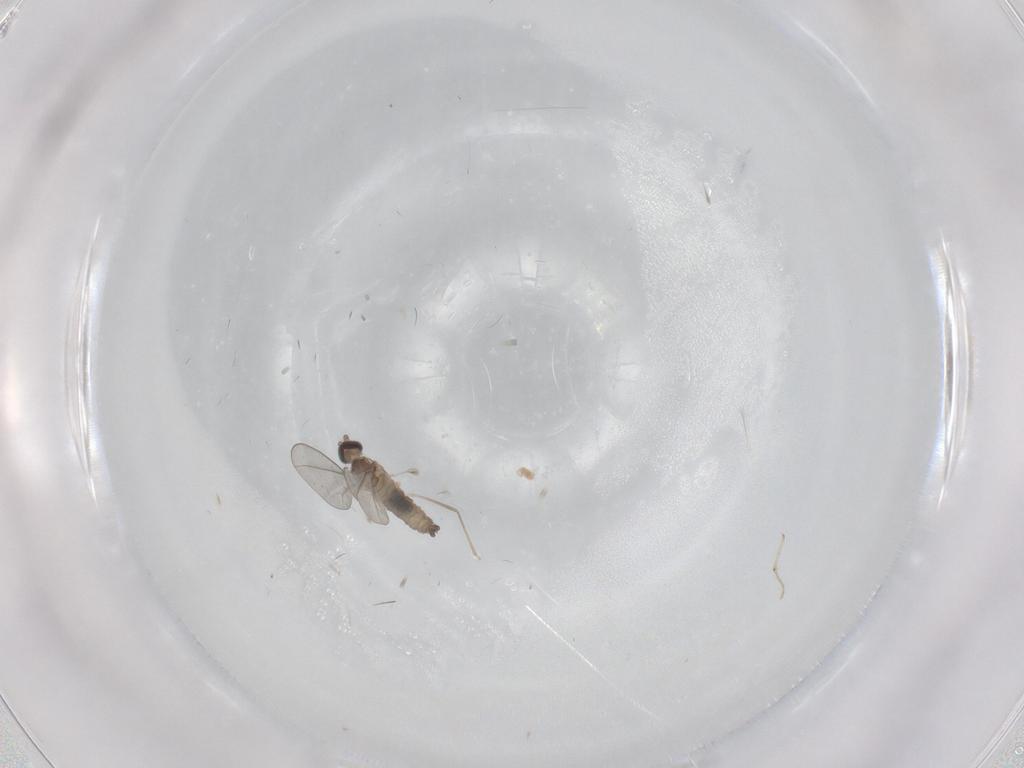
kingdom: Animalia
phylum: Arthropoda
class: Insecta
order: Diptera
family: Cecidomyiidae
